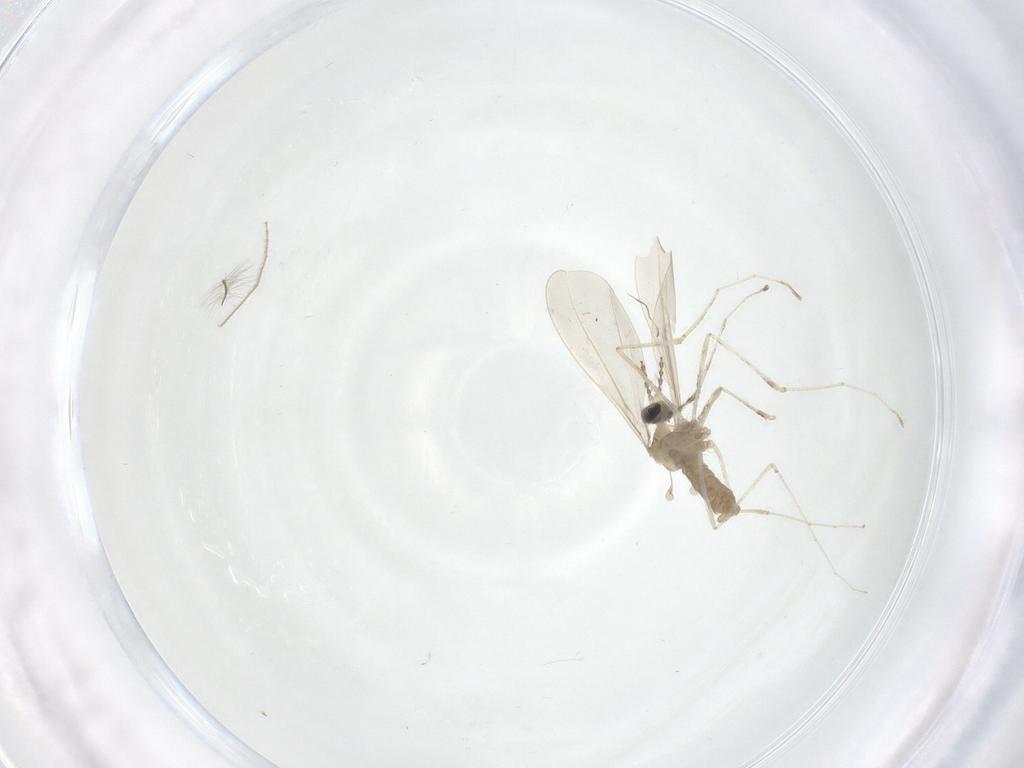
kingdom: Animalia
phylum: Arthropoda
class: Insecta
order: Diptera
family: Cecidomyiidae
